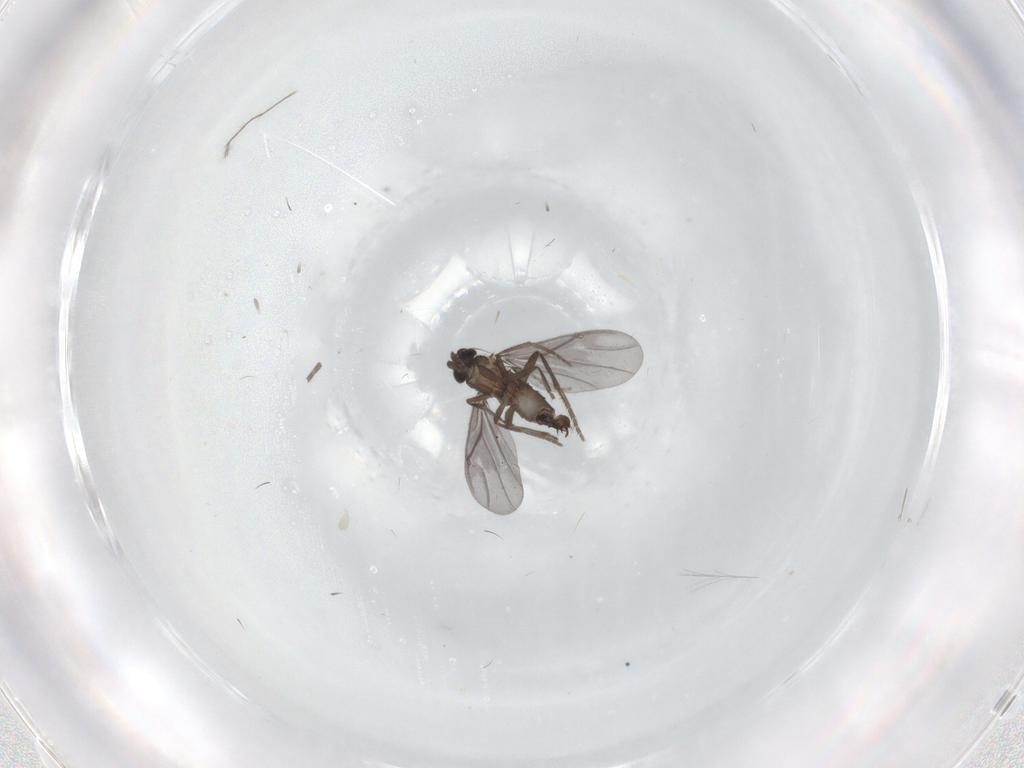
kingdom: Animalia
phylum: Arthropoda
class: Insecta
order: Diptera
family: Phoridae
